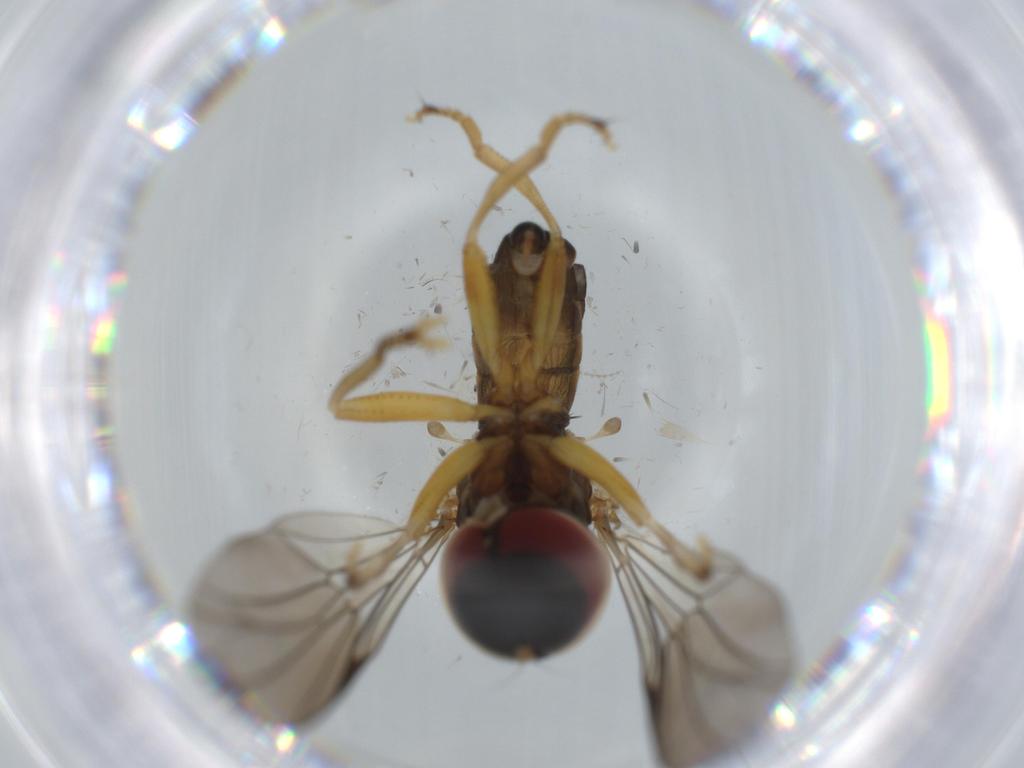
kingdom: Animalia
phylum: Arthropoda
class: Insecta
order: Diptera
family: Pipunculidae
